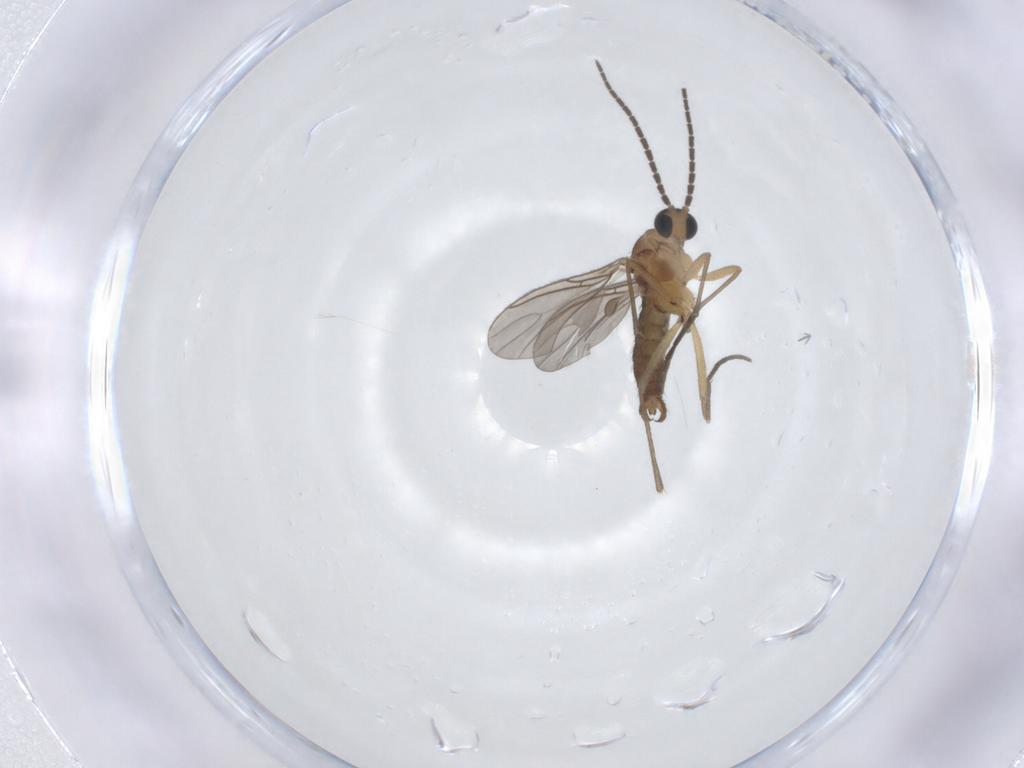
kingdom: Animalia
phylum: Arthropoda
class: Insecta
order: Diptera
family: Sciaridae
